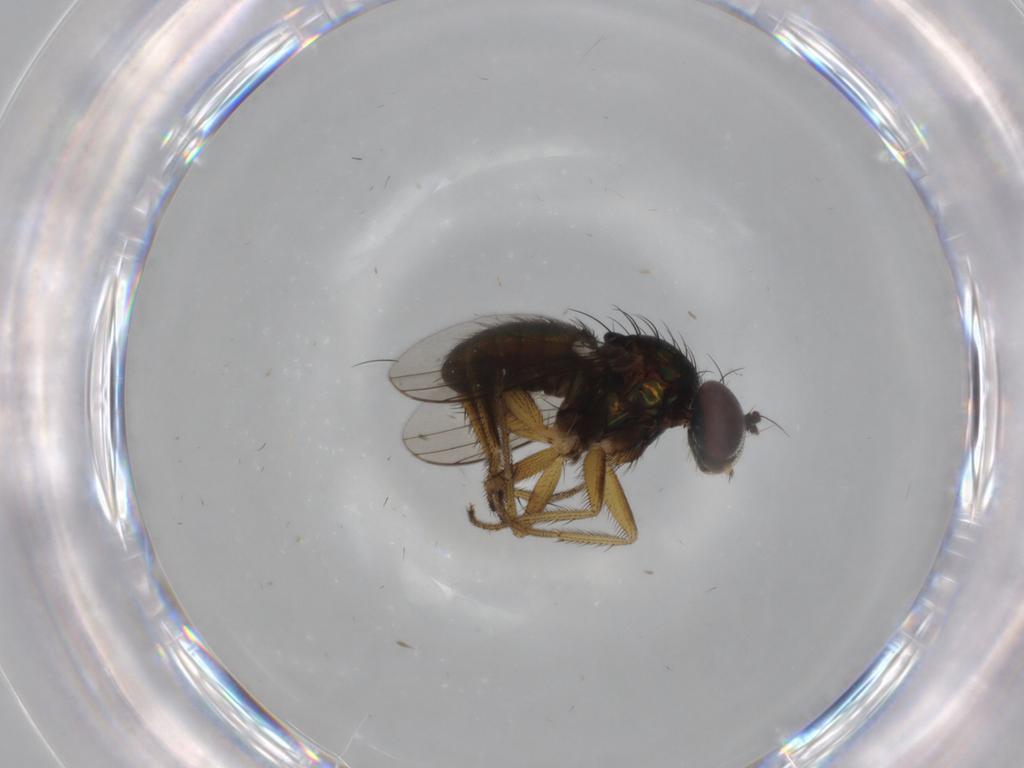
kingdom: Animalia
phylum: Arthropoda
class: Insecta
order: Diptera
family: Dolichopodidae
